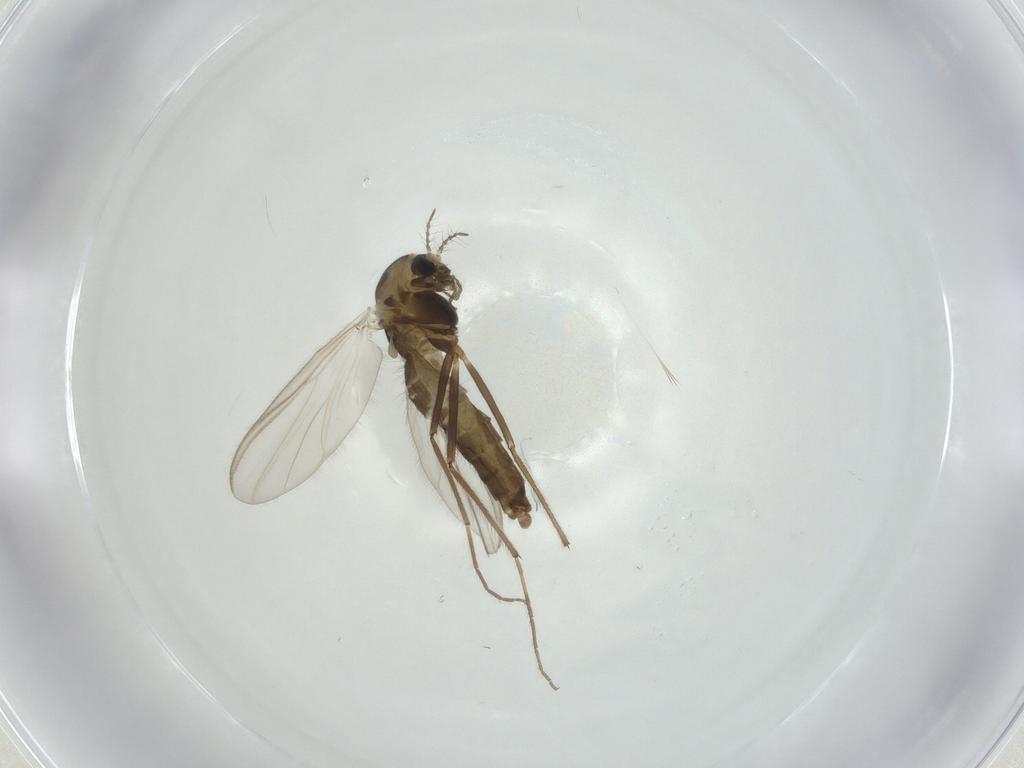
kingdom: Animalia
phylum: Arthropoda
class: Insecta
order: Diptera
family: Chironomidae
